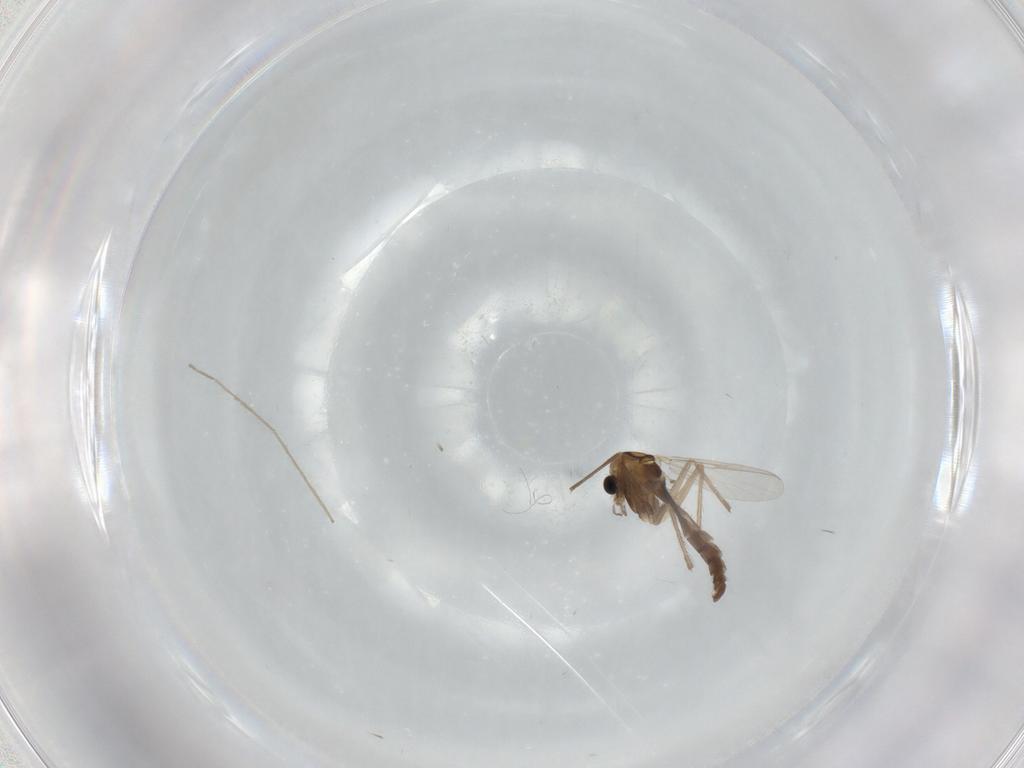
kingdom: Animalia
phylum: Arthropoda
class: Insecta
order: Diptera
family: Chironomidae
